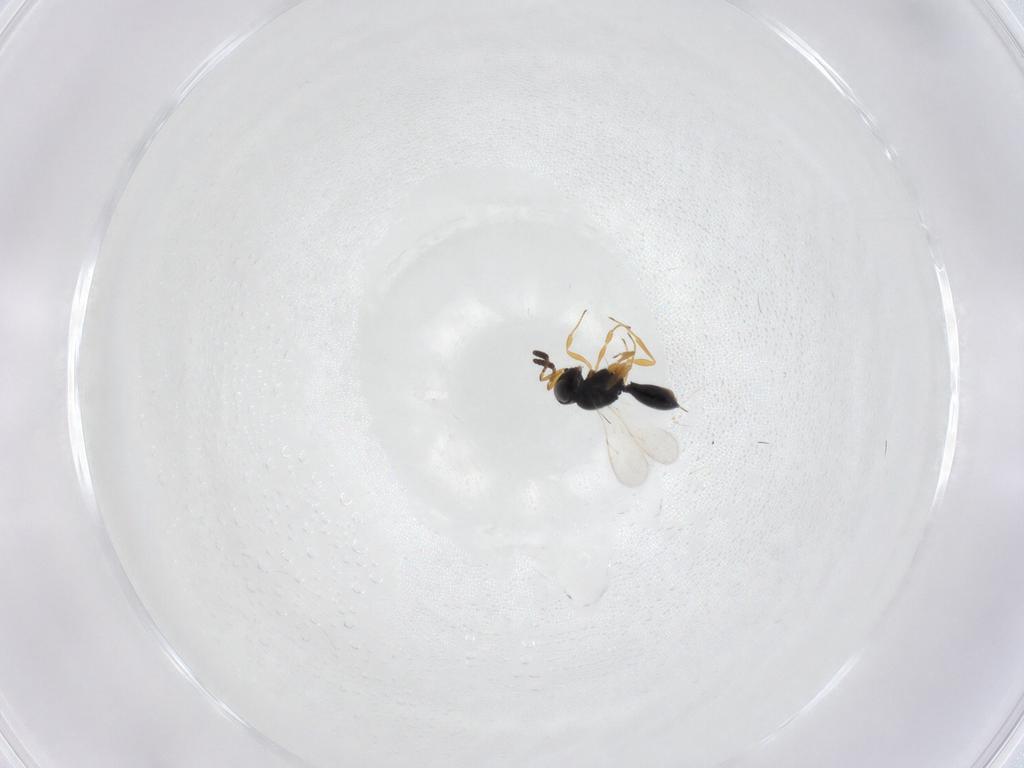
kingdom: Animalia
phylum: Arthropoda
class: Insecta
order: Hymenoptera
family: Scelionidae
